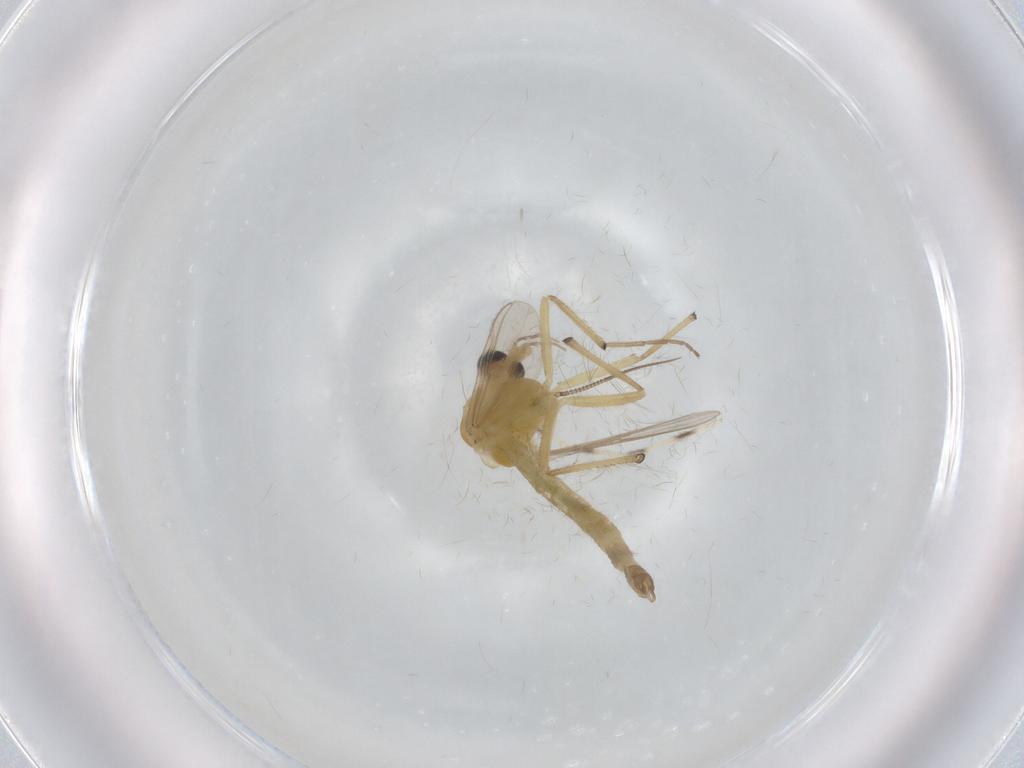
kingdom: Animalia
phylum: Arthropoda
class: Insecta
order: Diptera
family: Chironomidae
